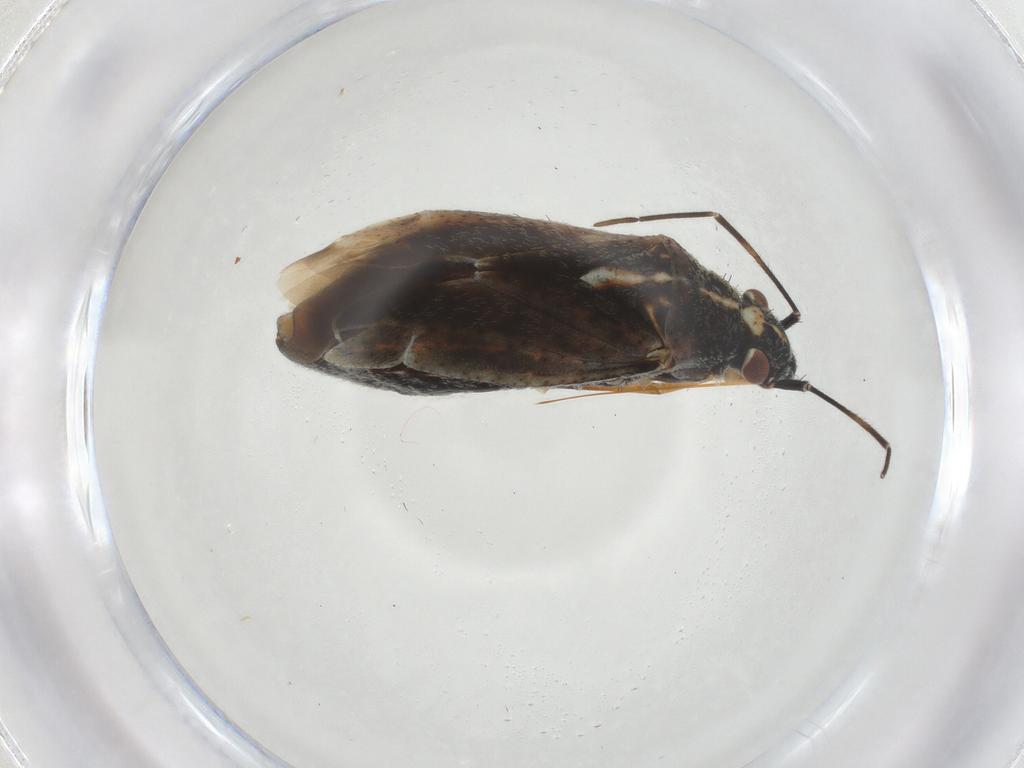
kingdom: Animalia
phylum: Arthropoda
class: Insecta
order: Hemiptera
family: Miridae
